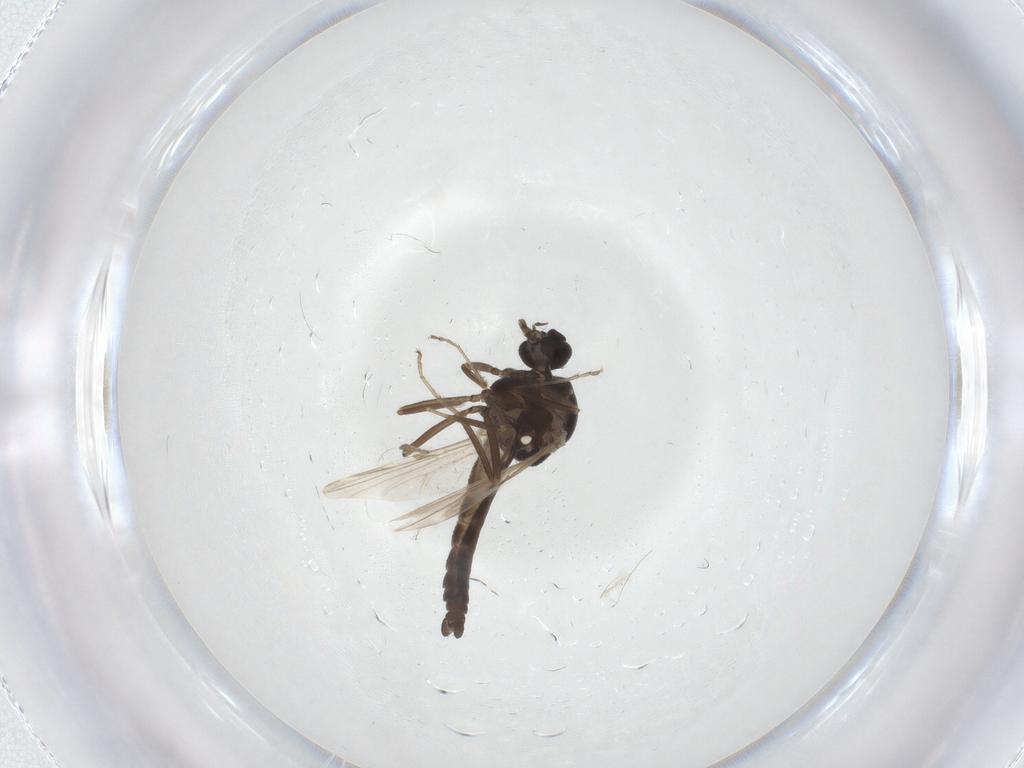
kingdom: Animalia
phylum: Arthropoda
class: Insecta
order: Diptera
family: Ceratopogonidae
